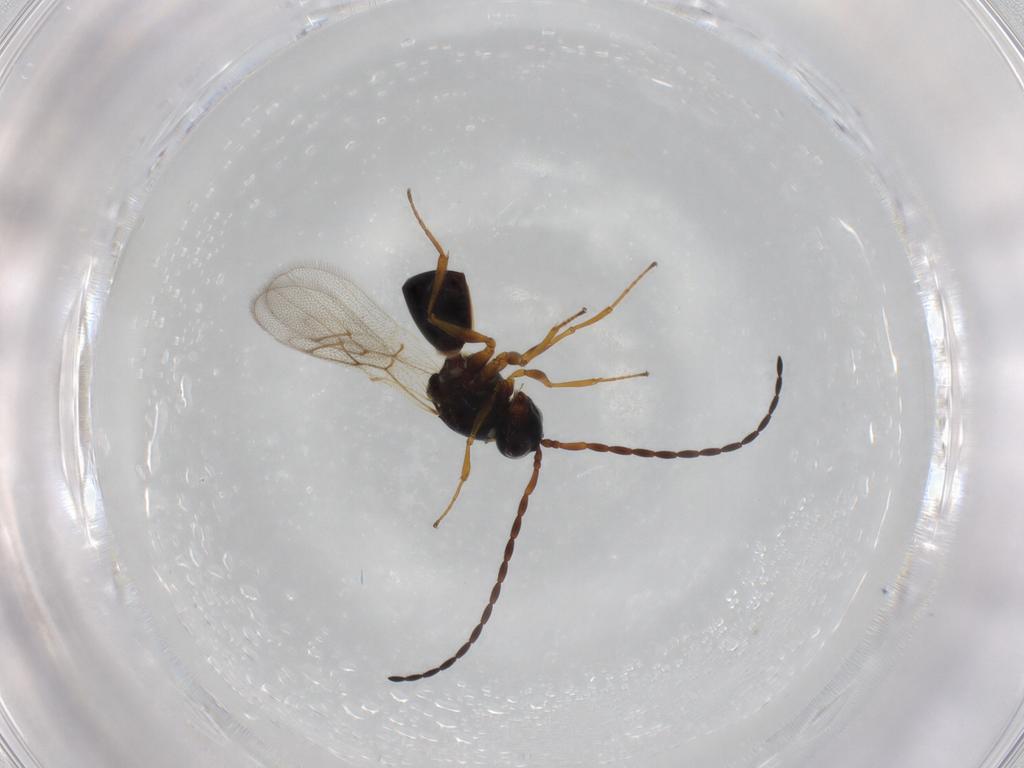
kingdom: Animalia
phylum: Arthropoda
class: Insecta
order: Hymenoptera
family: Figitidae
